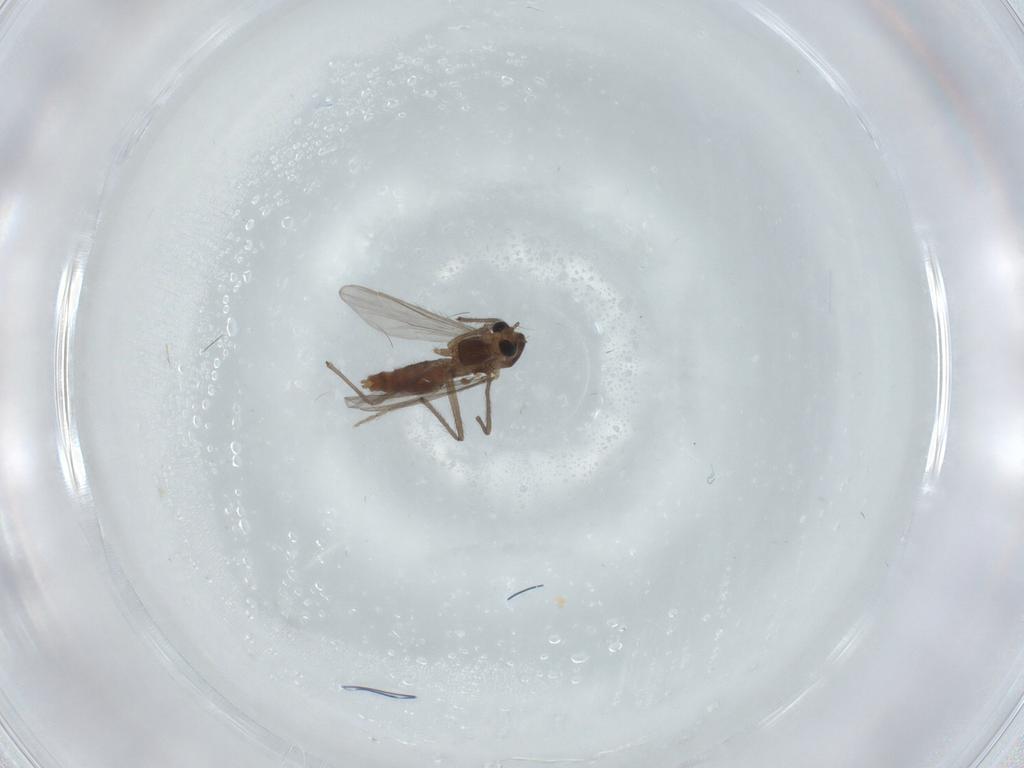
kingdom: Animalia
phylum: Arthropoda
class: Insecta
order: Diptera
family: Chironomidae
